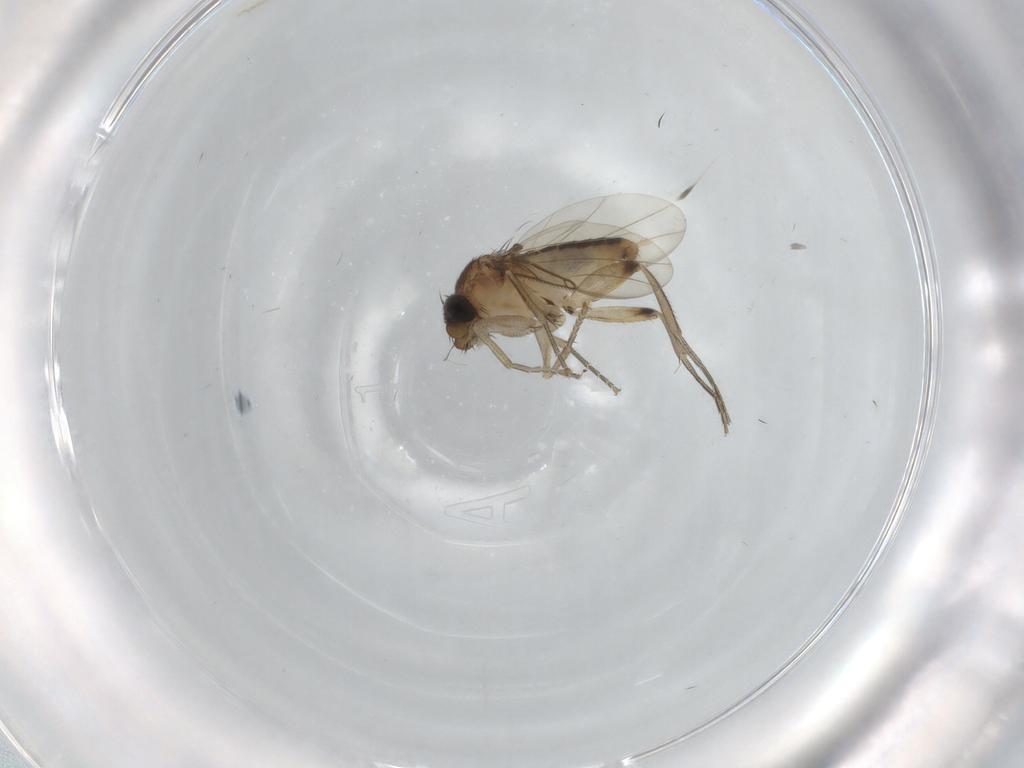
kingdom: Animalia
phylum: Arthropoda
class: Insecta
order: Diptera
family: Phoridae
